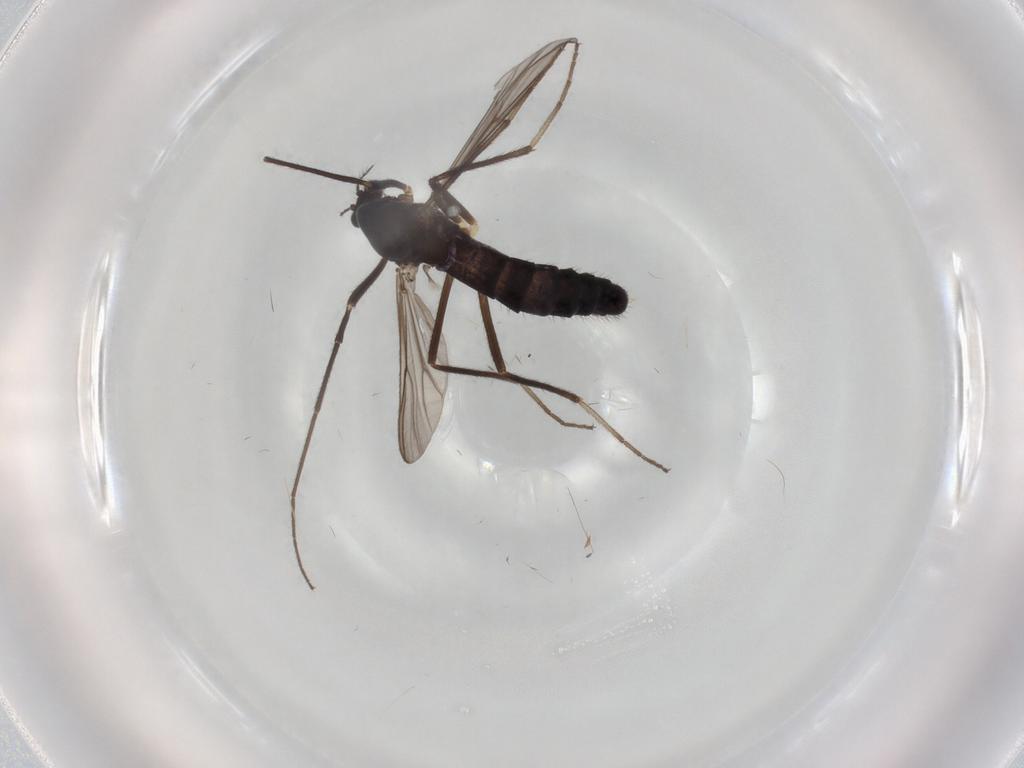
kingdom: Animalia
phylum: Arthropoda
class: Insecta
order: Diptera
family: Chironomidae
